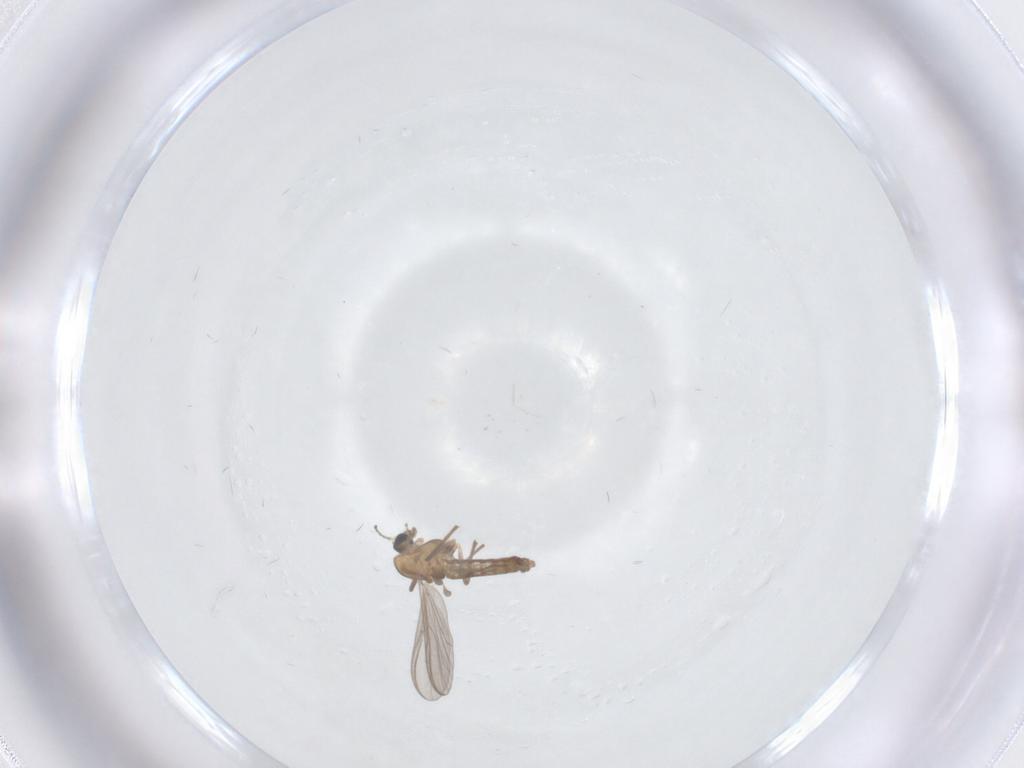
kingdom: Animalia
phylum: Arthropoda
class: Insecta
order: Diptera
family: Chironomidae
